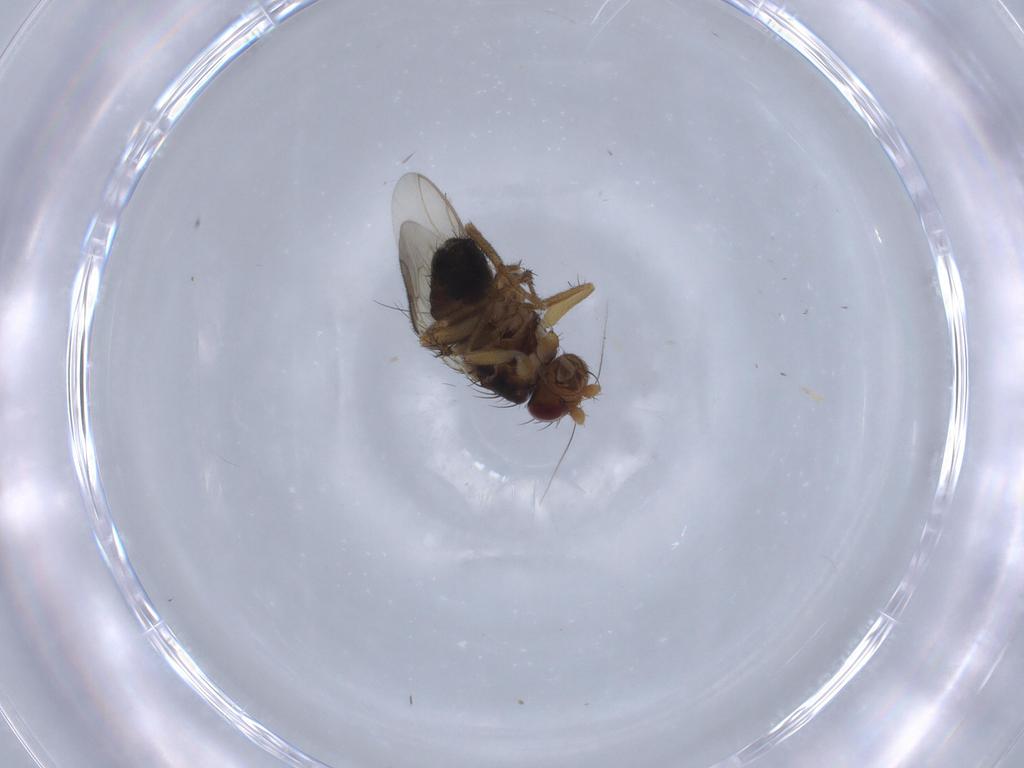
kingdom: Animalia
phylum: Arthropoda
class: Insecta
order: Diptera
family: Sphaeroceridae
